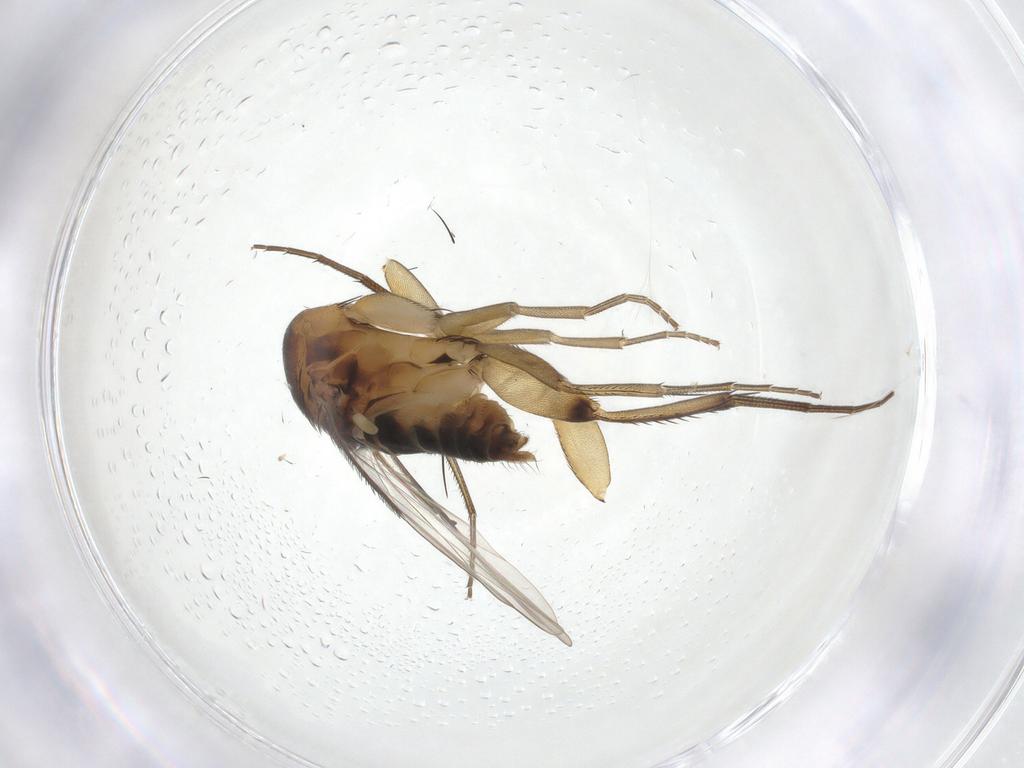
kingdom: Animalia
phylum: Arthropoda
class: Insecta
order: Diptera
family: Phoridae
